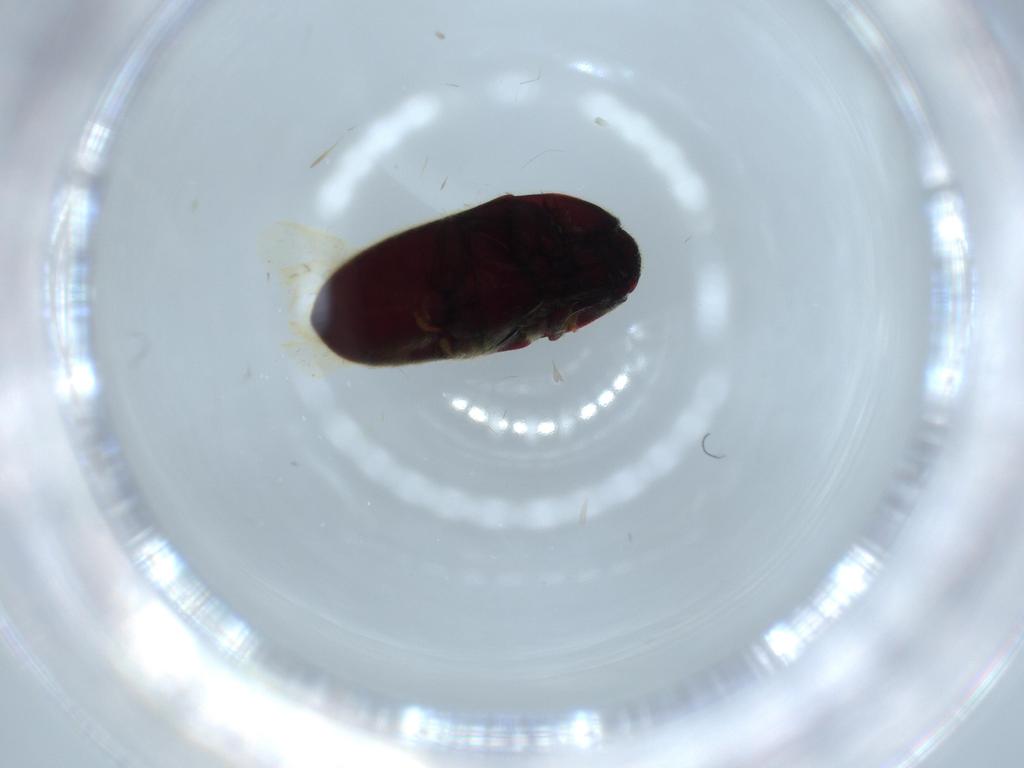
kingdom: Animalia
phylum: Arthropoda
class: Insecta
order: Coleoptera
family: Throscidae
